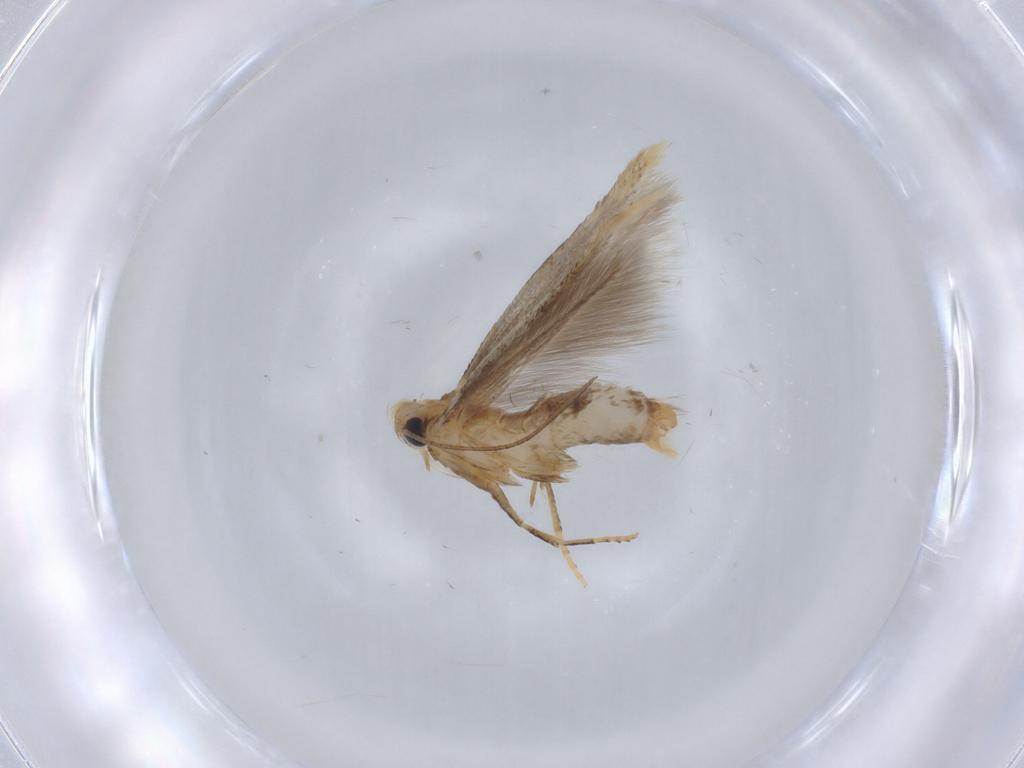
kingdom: Animalia
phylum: Arthropoda
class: Insecta
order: Lepidoptera
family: Tischeriidae
